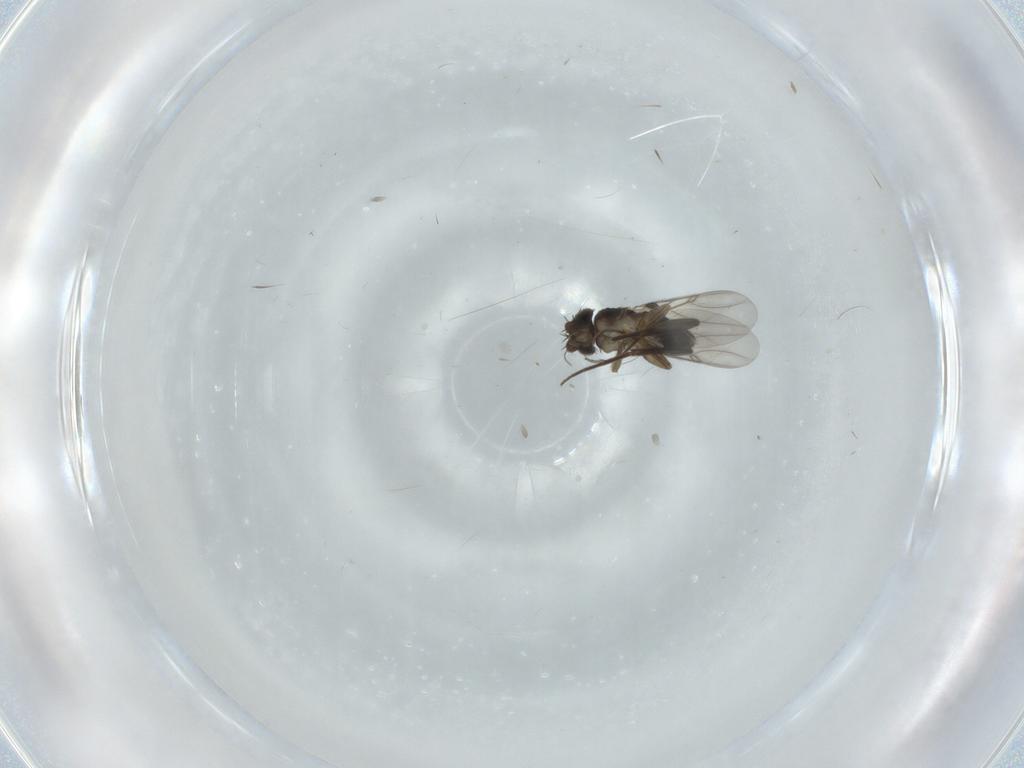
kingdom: Animalia
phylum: Arthropoda
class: Insecta
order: Diptera
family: Phoridae
